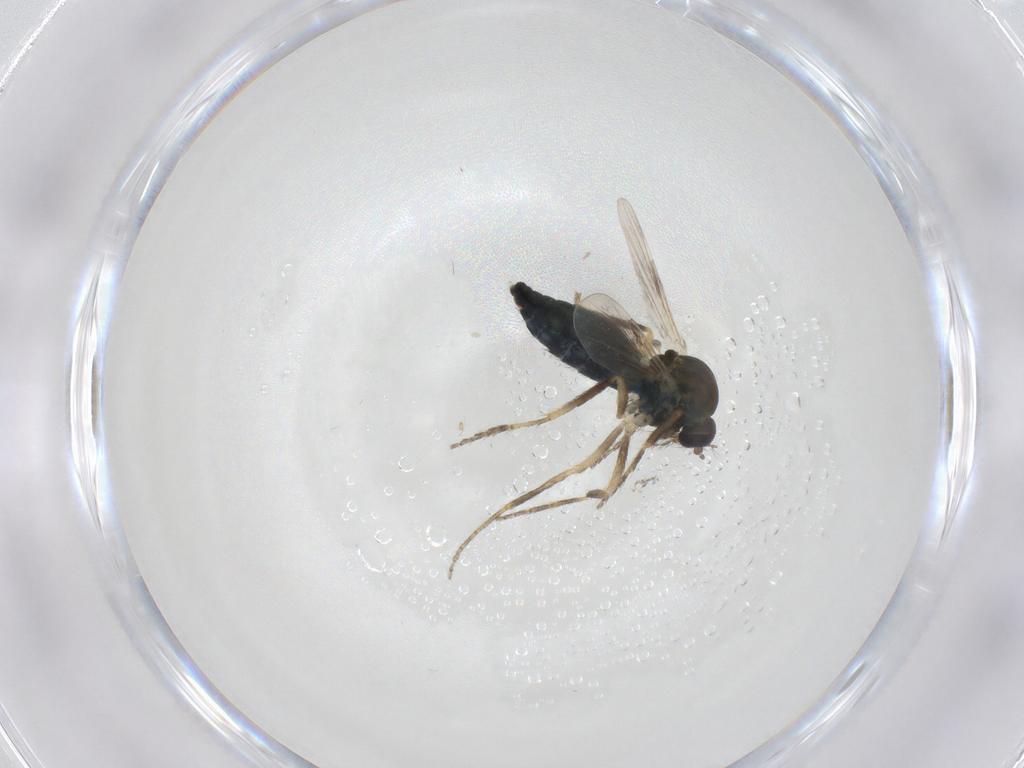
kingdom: Animalia
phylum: Arthropoda
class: Insecta
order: Diptera
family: Ceratopogonidae
